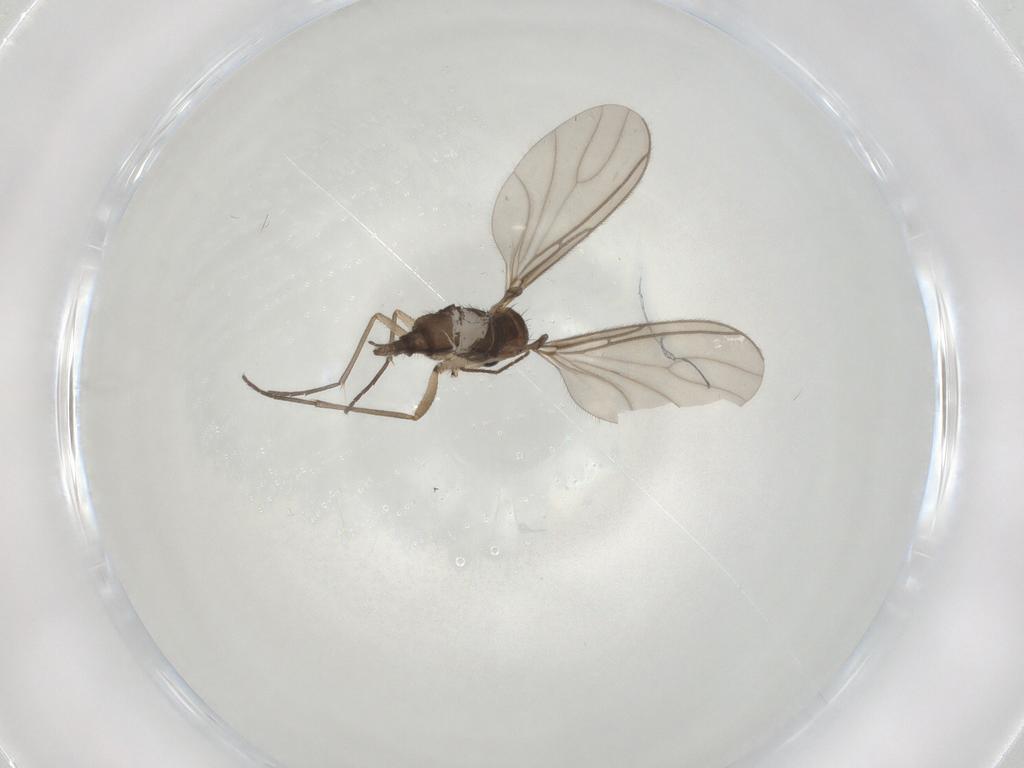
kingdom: Animalia
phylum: Arthropoda
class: Insecta
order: Diptera
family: Sciaridae
